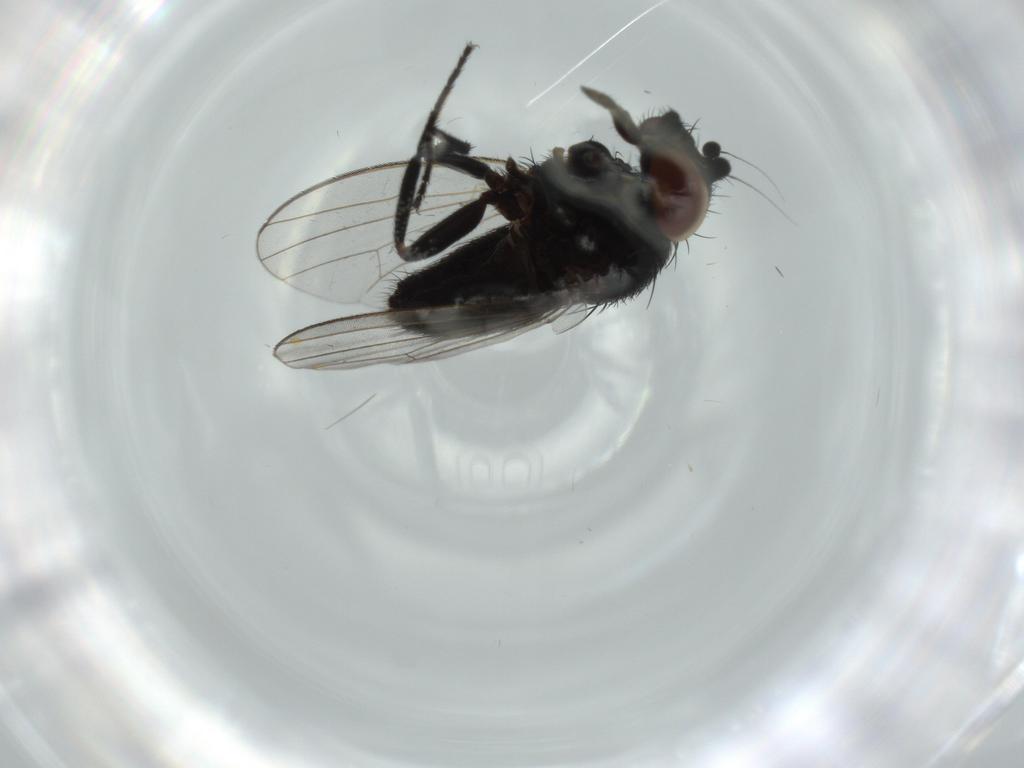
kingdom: Animalia
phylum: Arthropoda
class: Insecta
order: Diptera
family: Milichiidae
